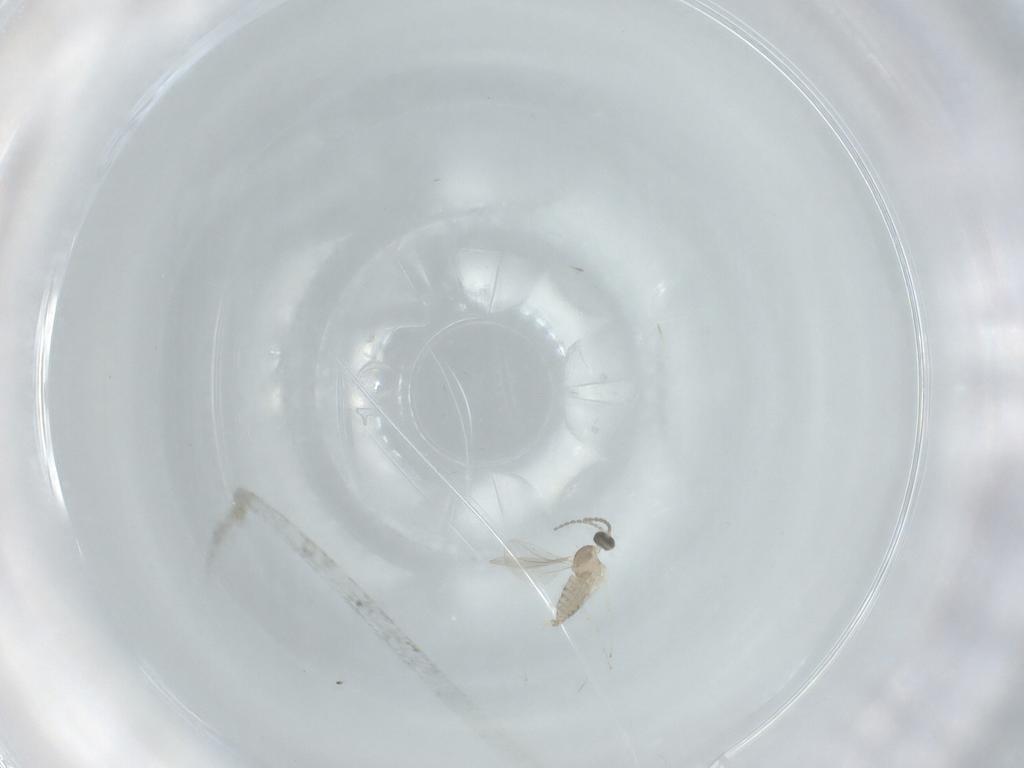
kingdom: Animalia
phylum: Arthropoda
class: Insecta
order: Diptera
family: Cecidomyiidae
